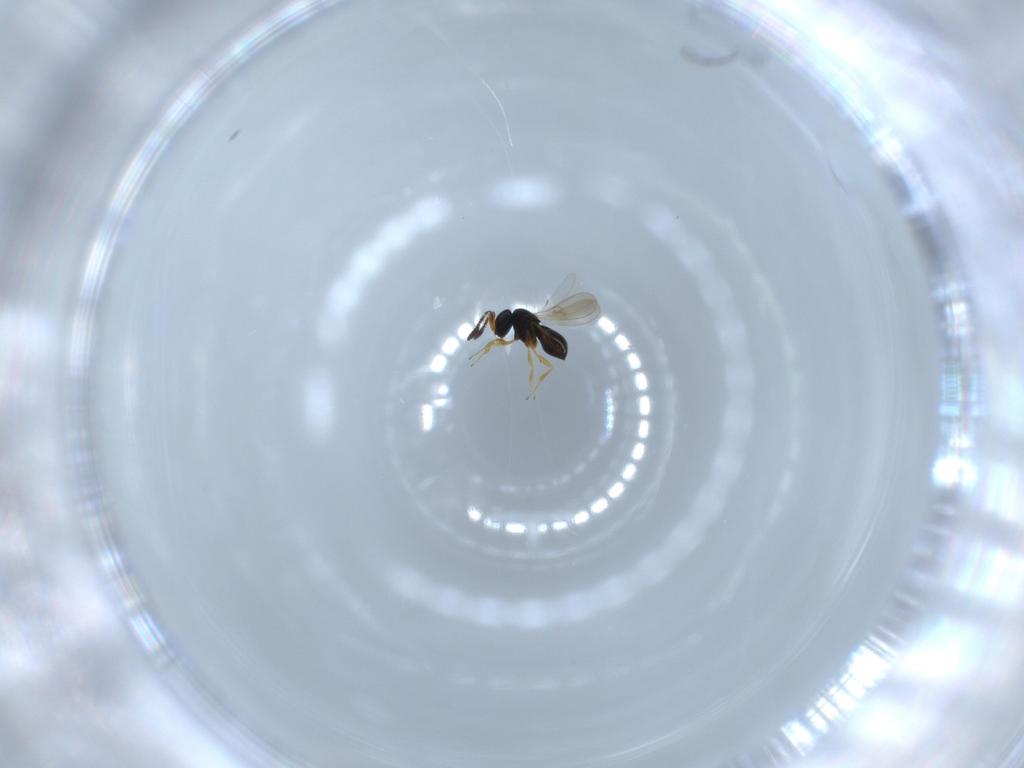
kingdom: Animalia
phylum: Arthropoda
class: Insecta
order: Hymenoptera
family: Scelionidae
